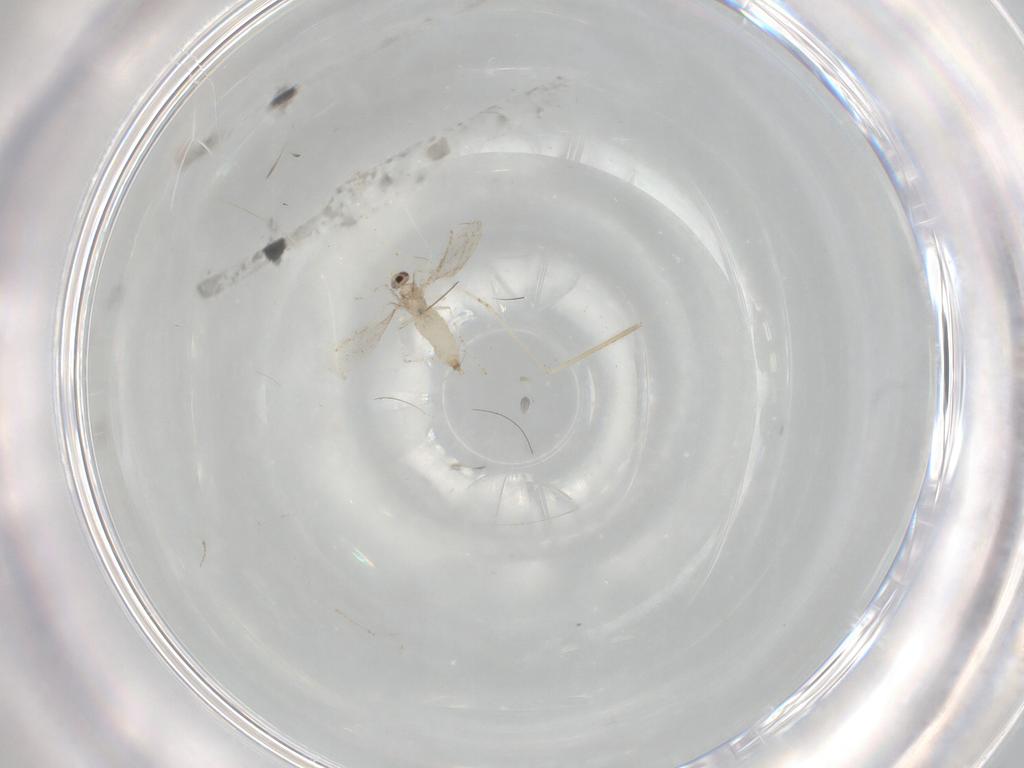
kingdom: Animalia
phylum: Arthropoda
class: Insecta
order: Diptera
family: Cecidomyiidae
